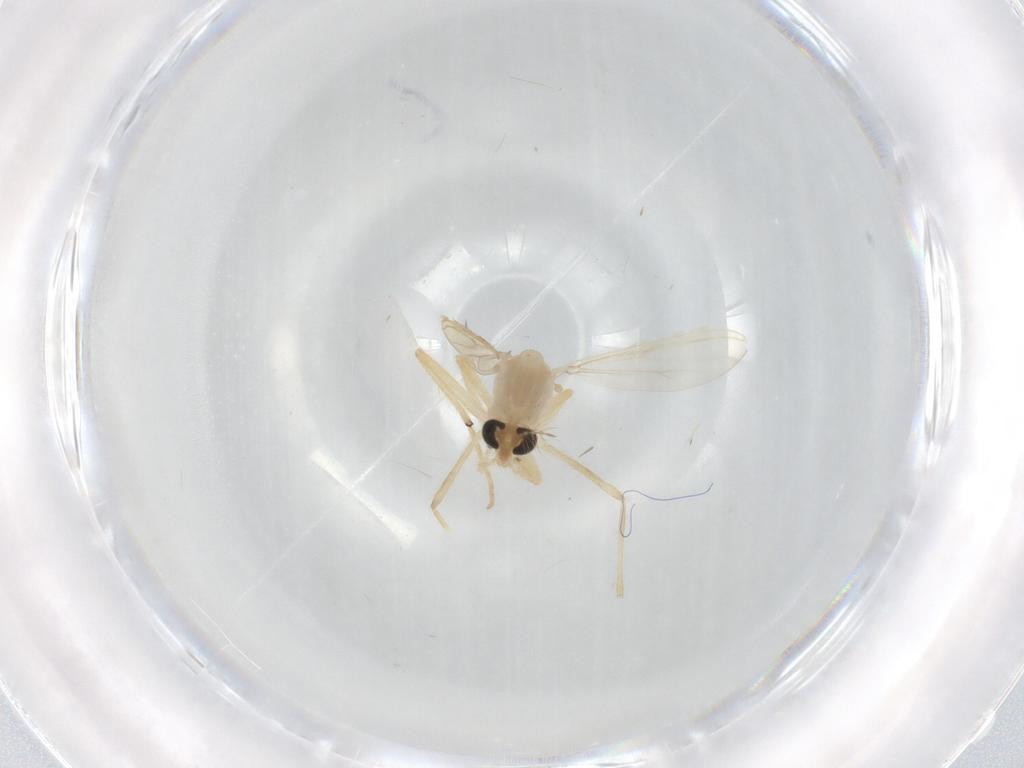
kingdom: Animalia
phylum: Arthropoda
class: Insecta
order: Diptera
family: Chironomidae
